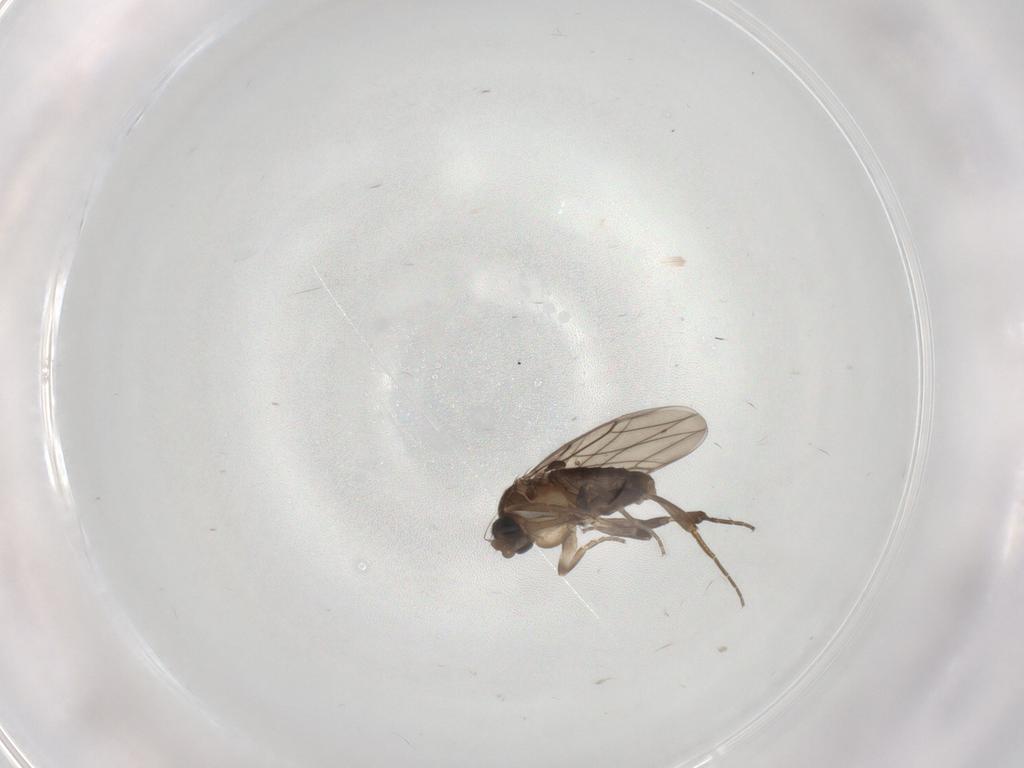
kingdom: Animalia
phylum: Arthropoda
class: Insecta
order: Diptera
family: Phoridae
